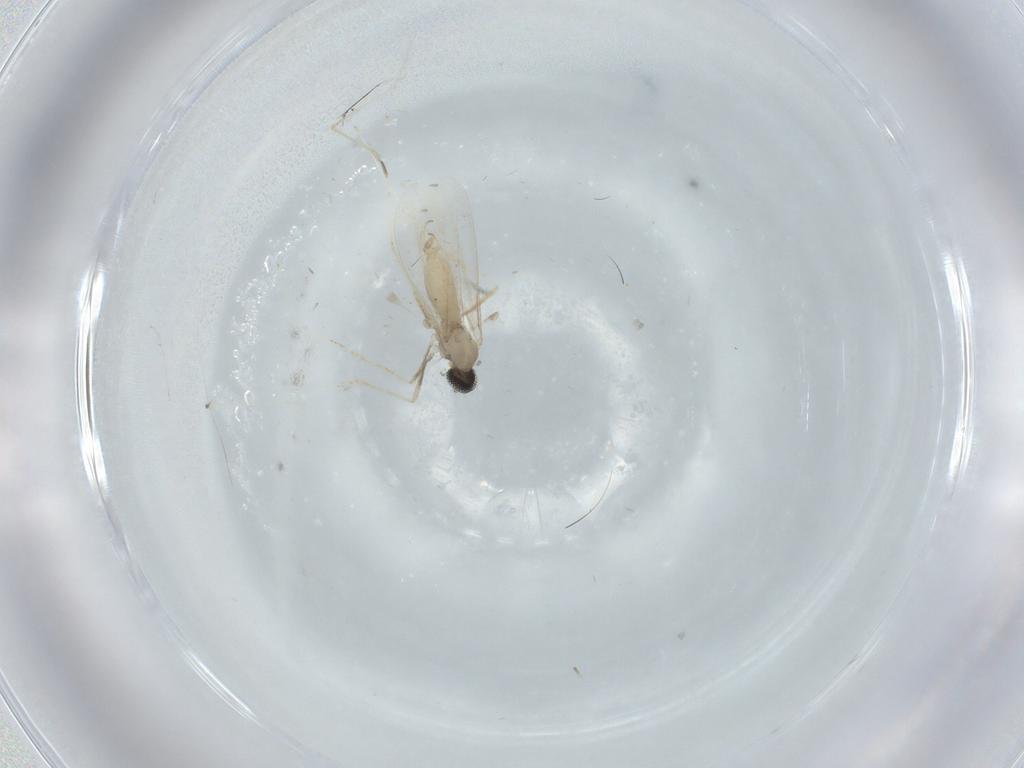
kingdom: Animalia
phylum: Arthropoda
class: Insecta
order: Diptera
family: Cecidomyiidae
